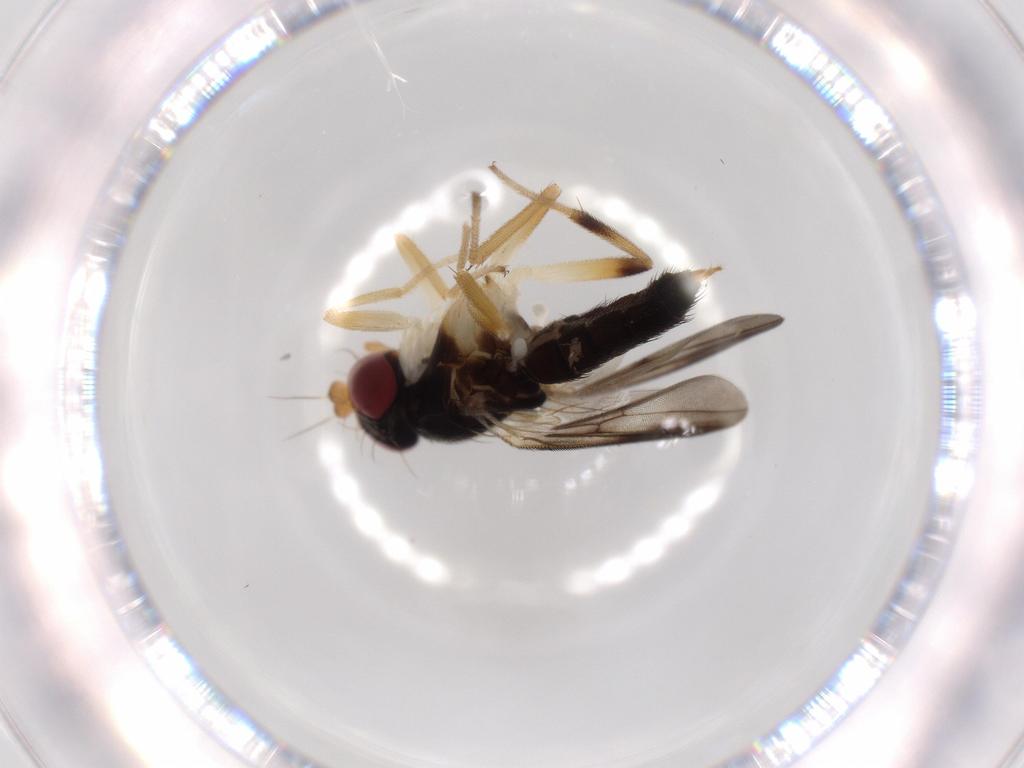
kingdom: Animalia
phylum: Arthropoda
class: Insecta
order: Diptera
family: Clusiidae
